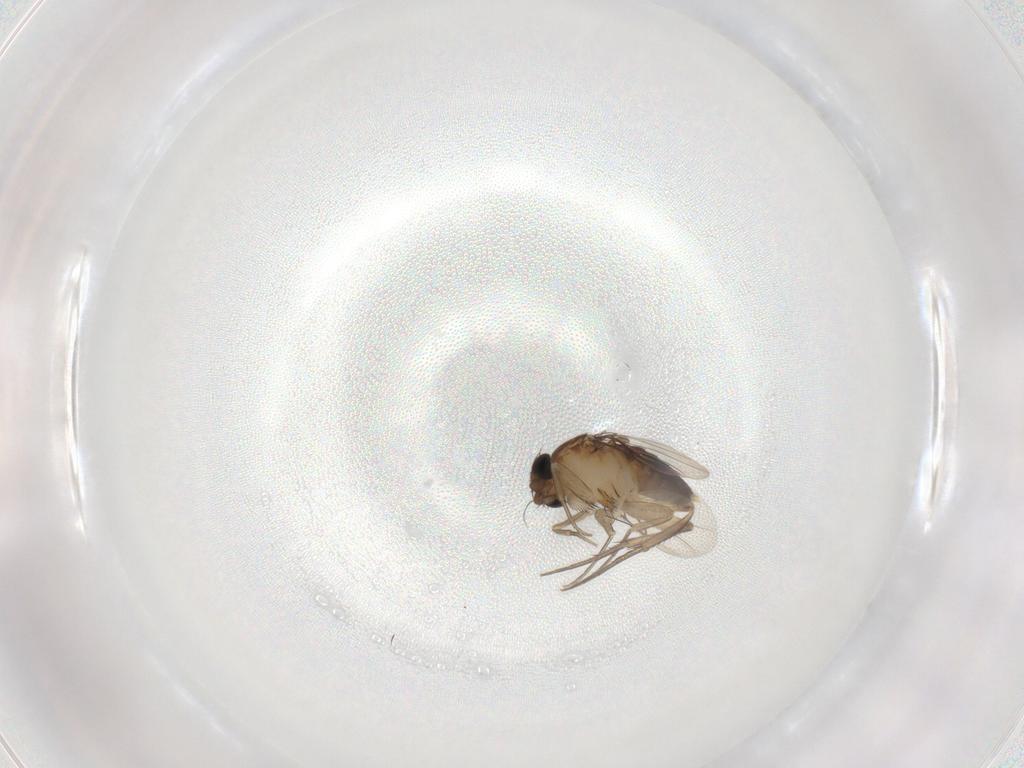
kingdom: Animalia
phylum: Arthropoda
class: Insecta
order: Diptera
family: Phoridae
